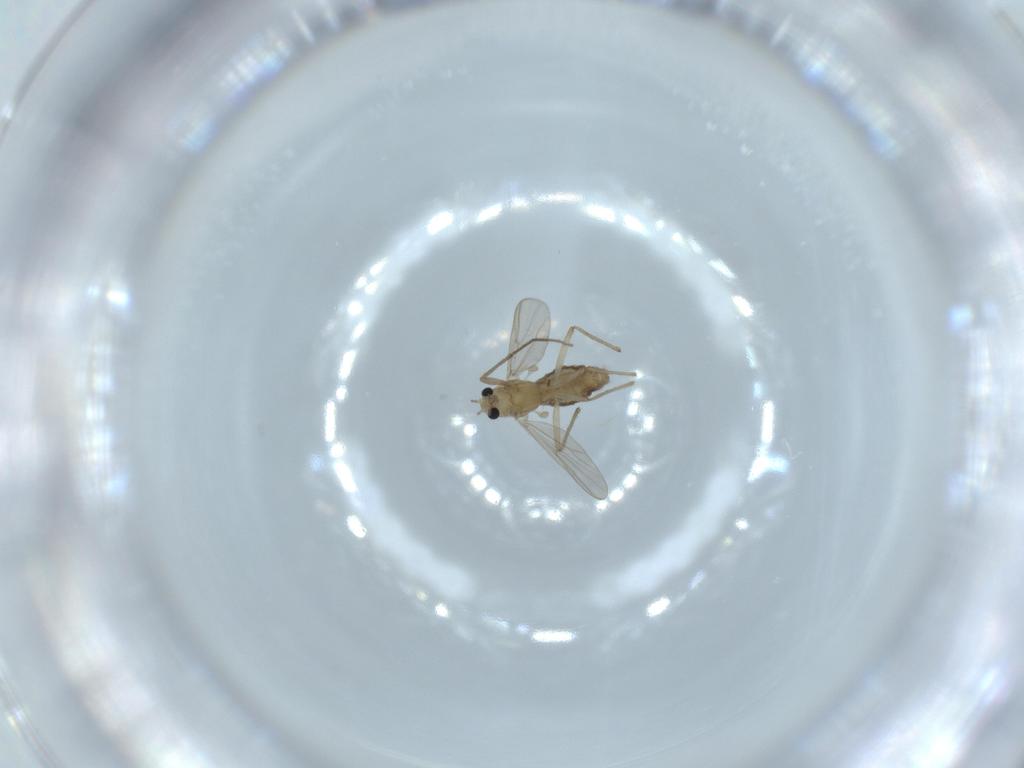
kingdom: Animalia
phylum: Arthropoda
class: Insecta
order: Diptera
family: Chironomidae
